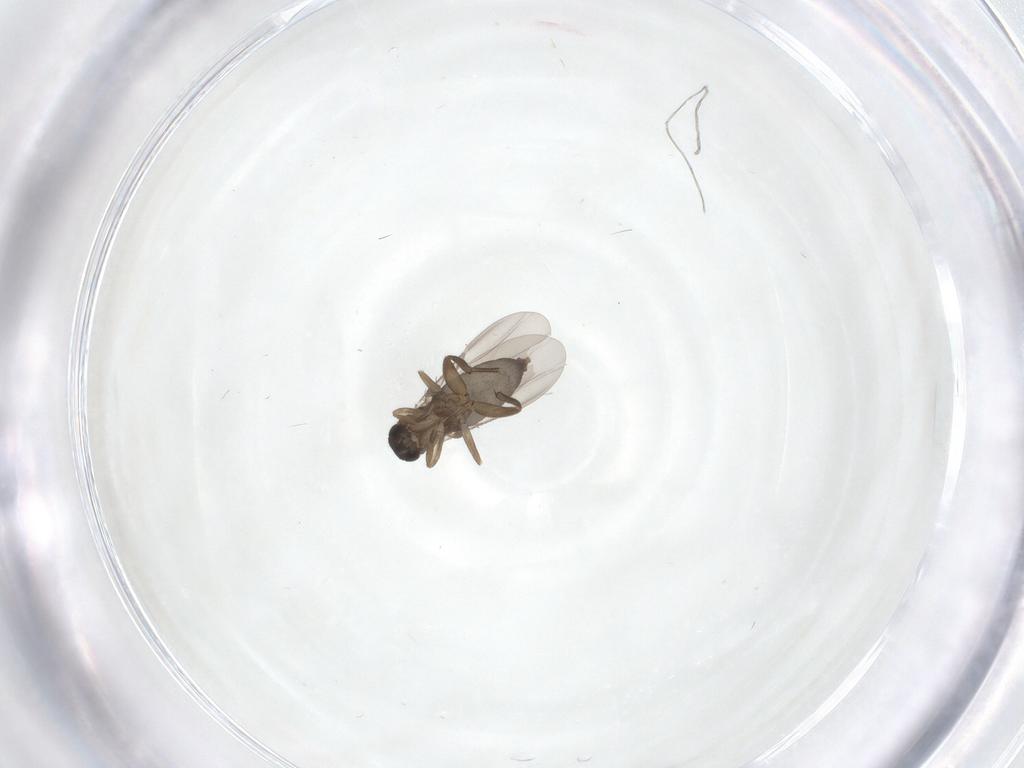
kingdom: Animalia
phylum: Arthropoda
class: Insecta
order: Diptera
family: Phoridae
